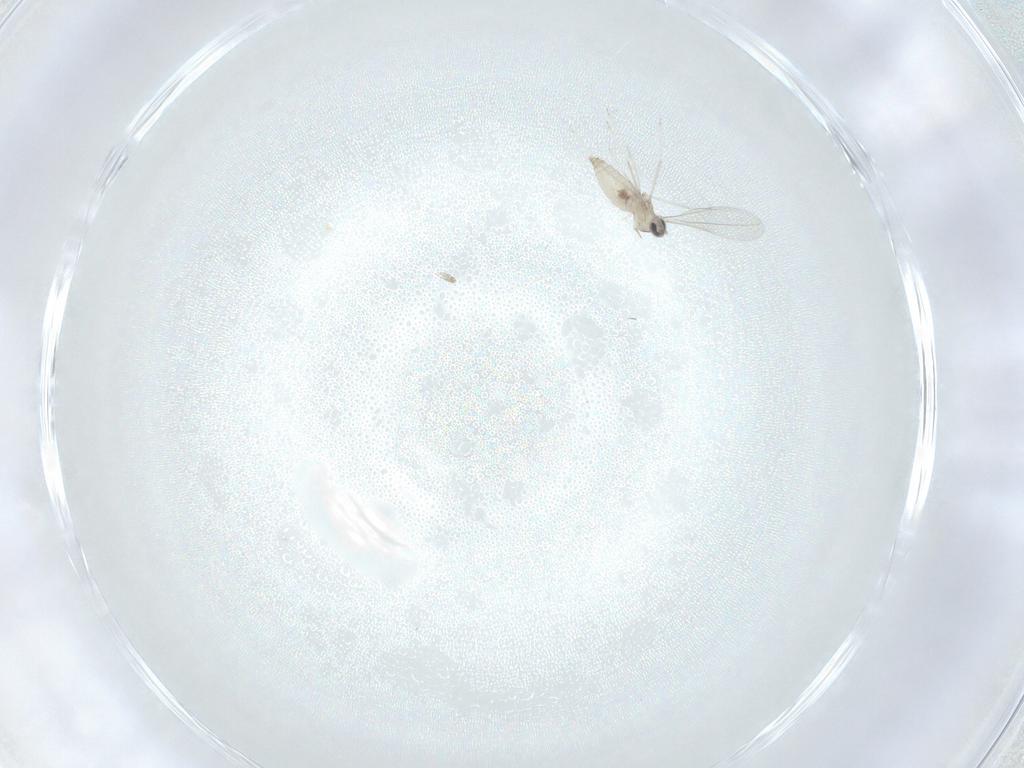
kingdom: Animalia
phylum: Arthropoda
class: Insecta
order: Diptera
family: Cecidomyiidae
